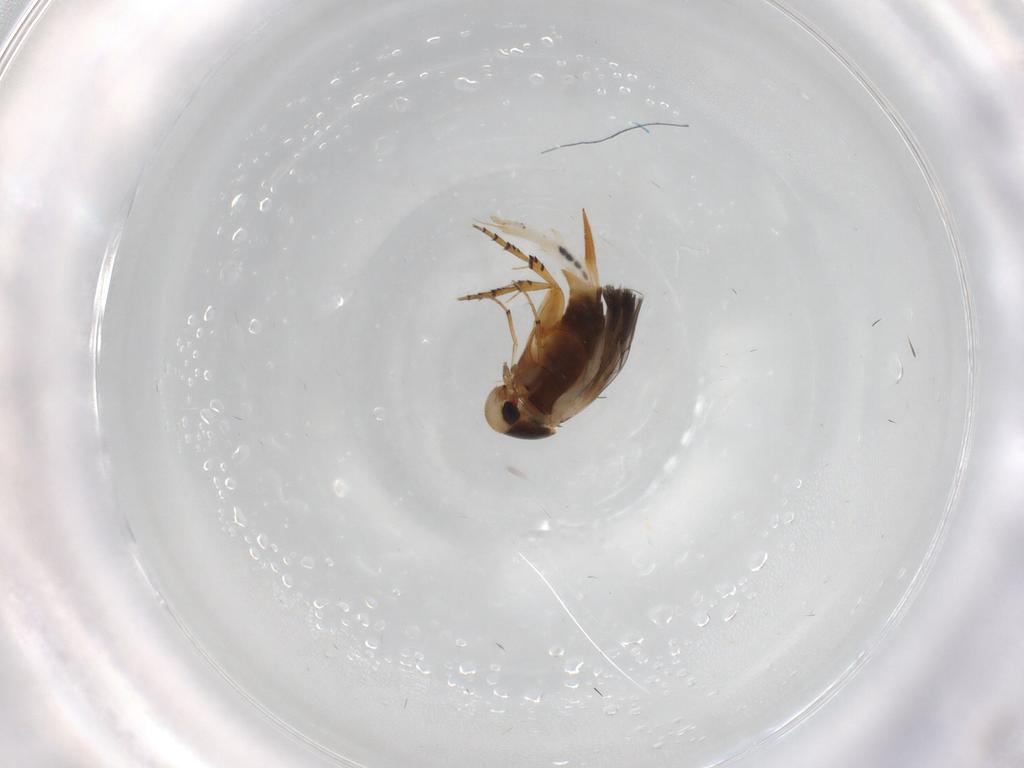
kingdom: Animalia
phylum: Arthropoda
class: Insecta
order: Coleoptera
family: Mordellidae
